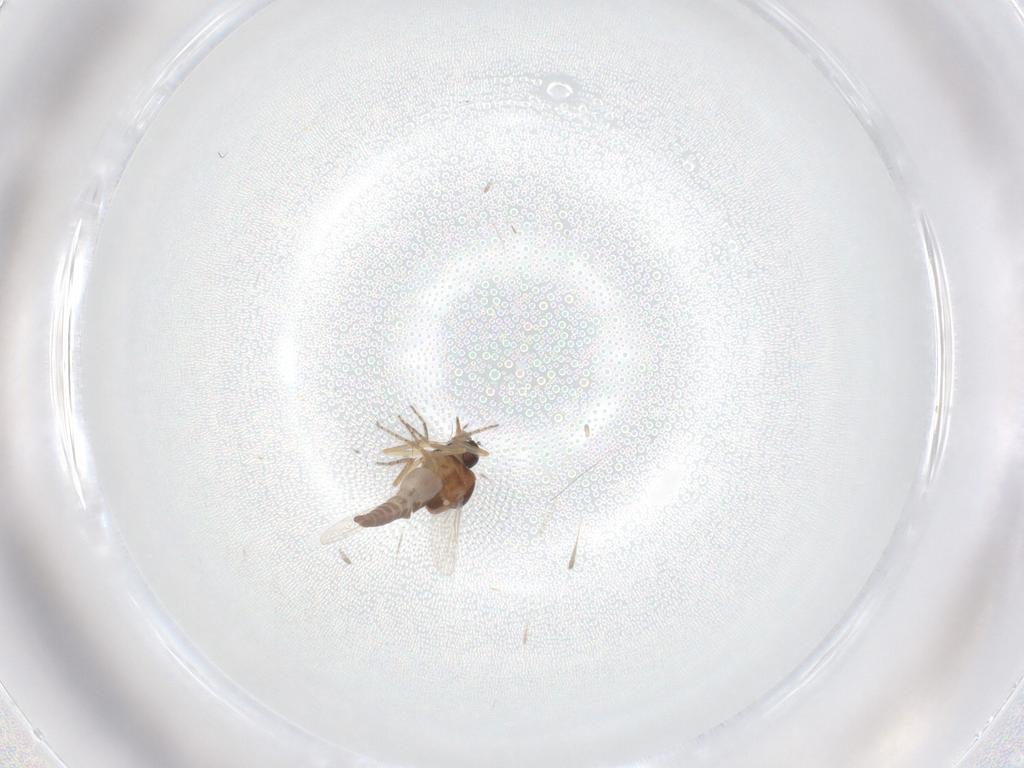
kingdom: Animalia
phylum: Arthropoda
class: Insecta
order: Diptera
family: Ceratopogonidae
